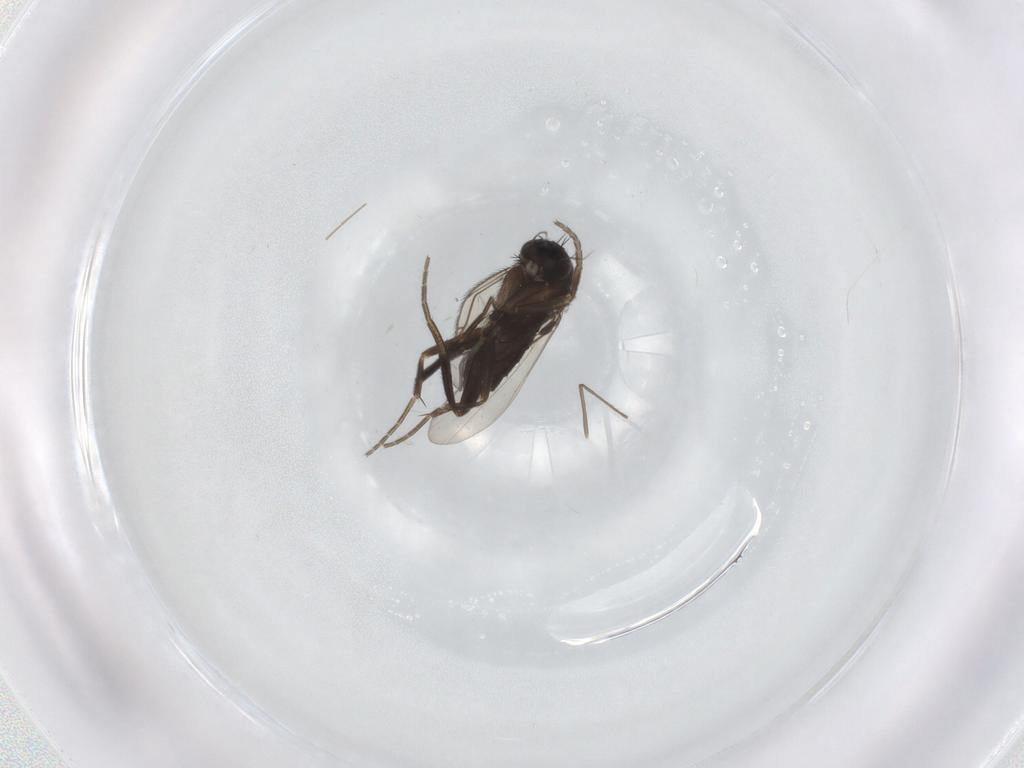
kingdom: Animalia
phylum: Arthropoda
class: Insecta
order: Diptera
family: Phoridae
